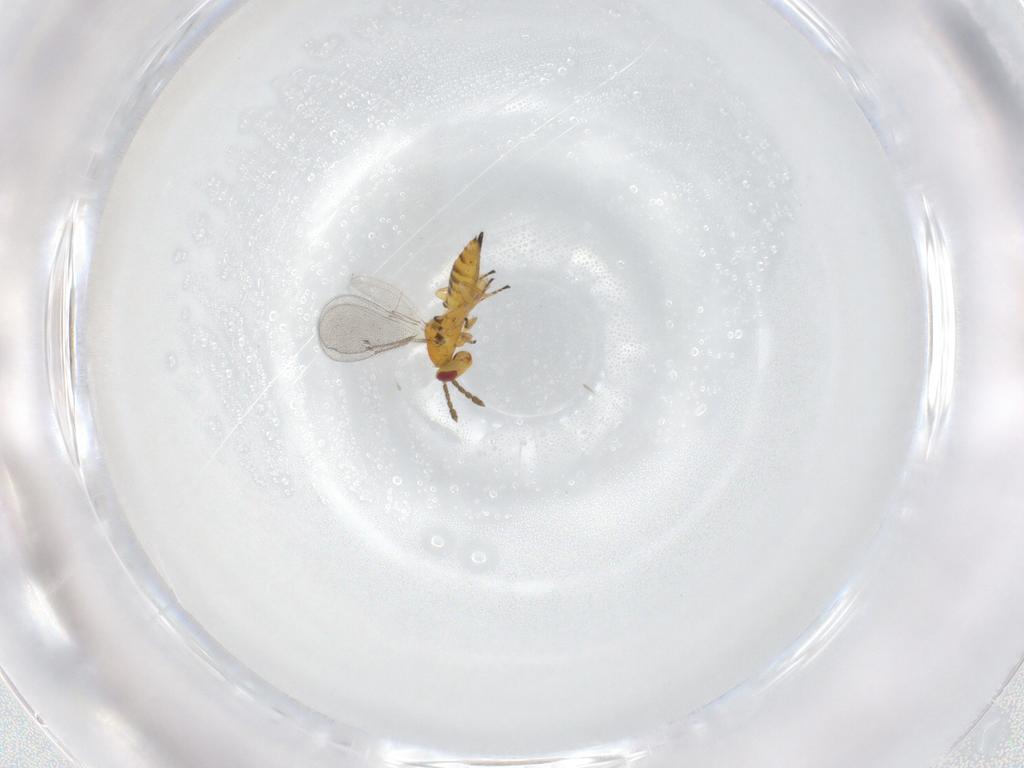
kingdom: Animalia
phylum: Arthropoda
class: Insecta
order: Hymenoptera
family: Eulophidae
